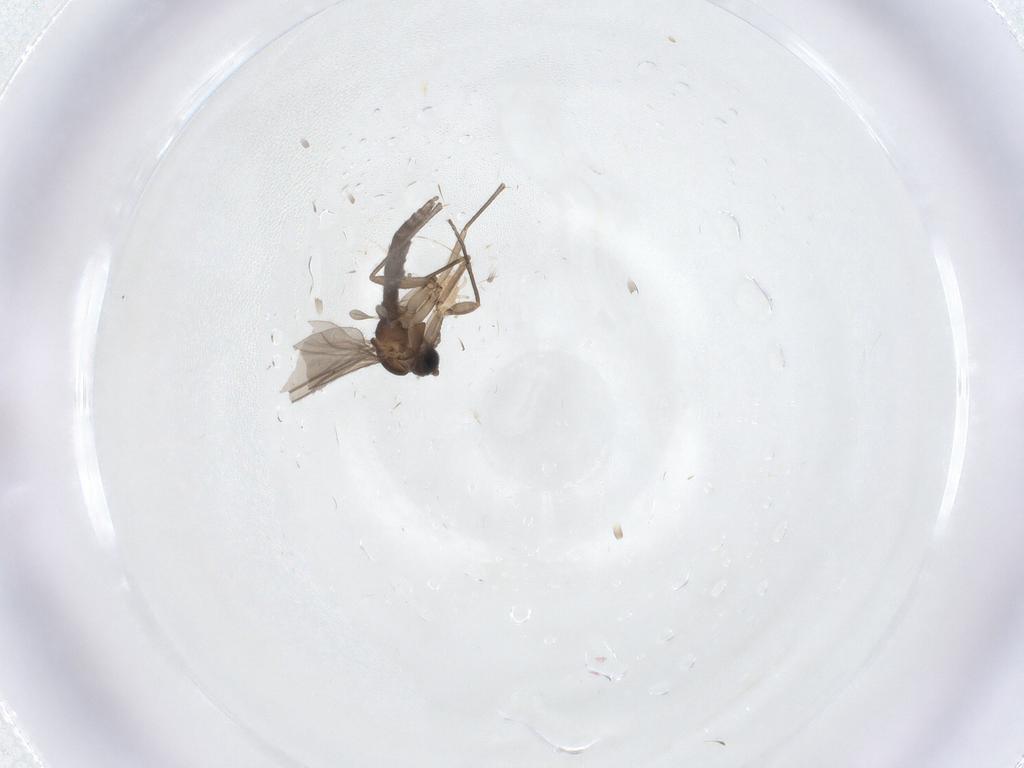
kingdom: Animalia
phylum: Arthropoda
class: Insecta
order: Diptera
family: Sciaridae
